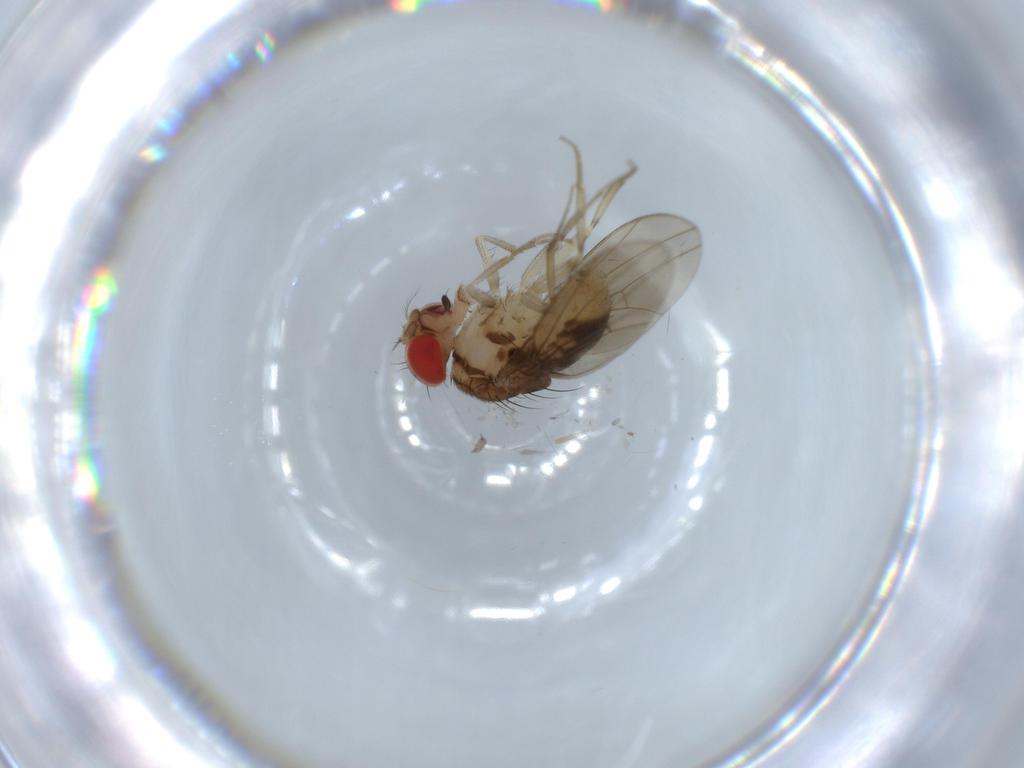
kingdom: Animalia
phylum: Arthropoda
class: Insecta
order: Diptera
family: Drosophilidae
